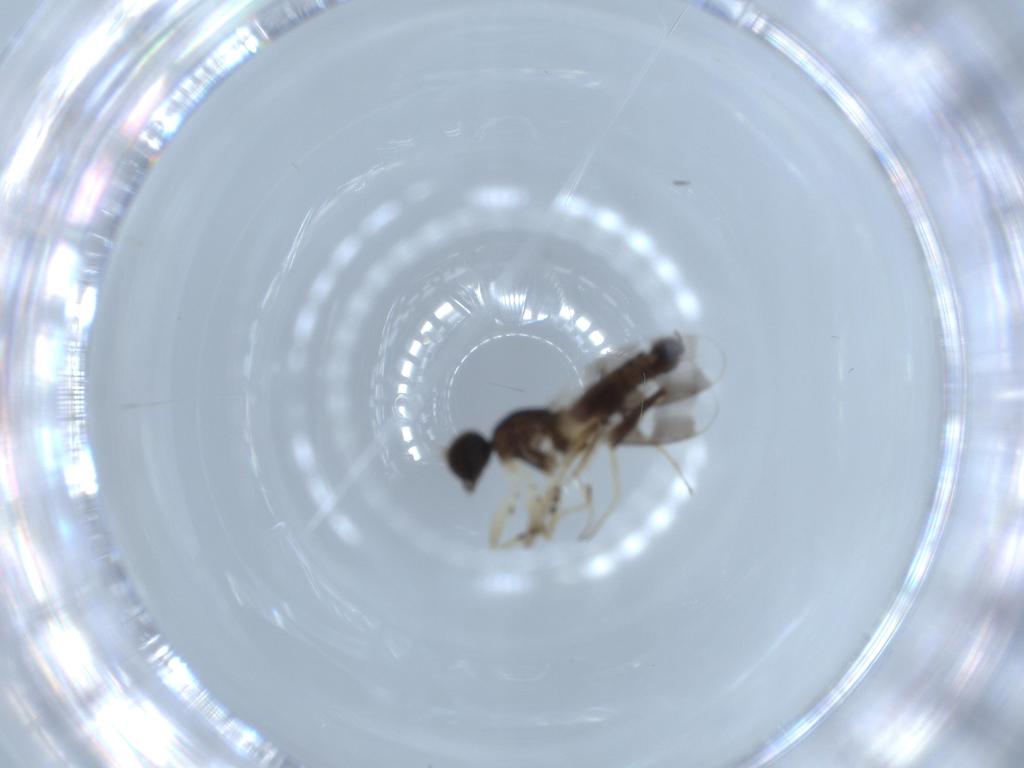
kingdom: Animalia
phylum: Arthropoda
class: Insecta
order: Diptera
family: Hybotidae
